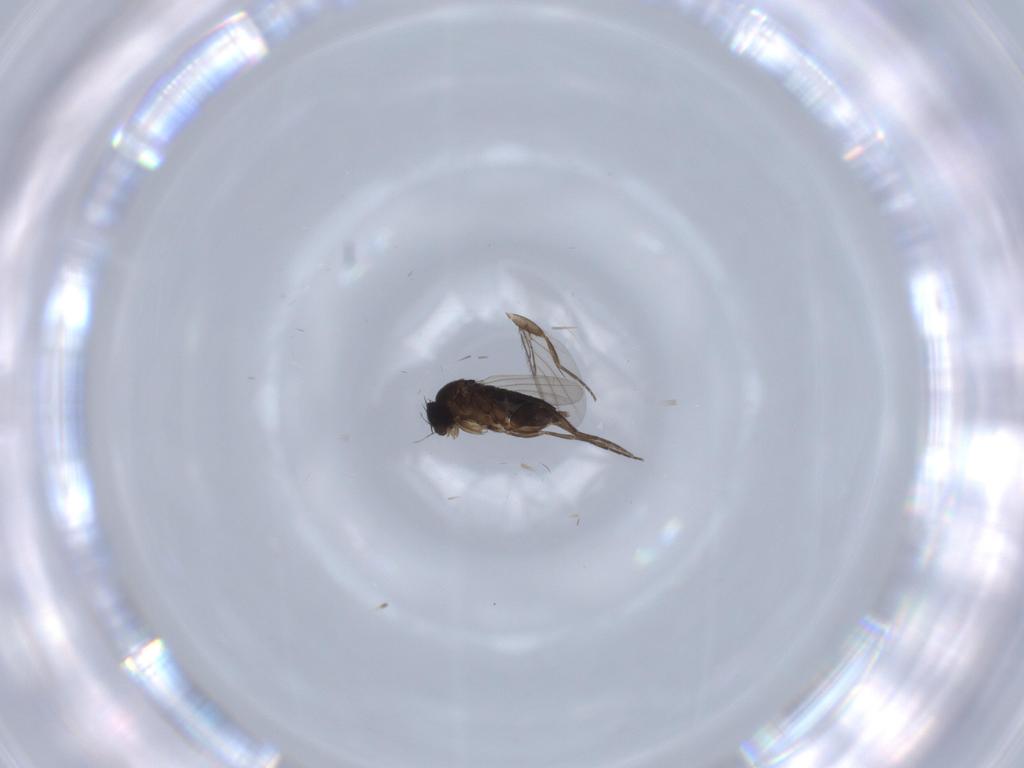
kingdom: Animalia
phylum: Arthropoda
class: Insecta
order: Diptera
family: Phoridae
